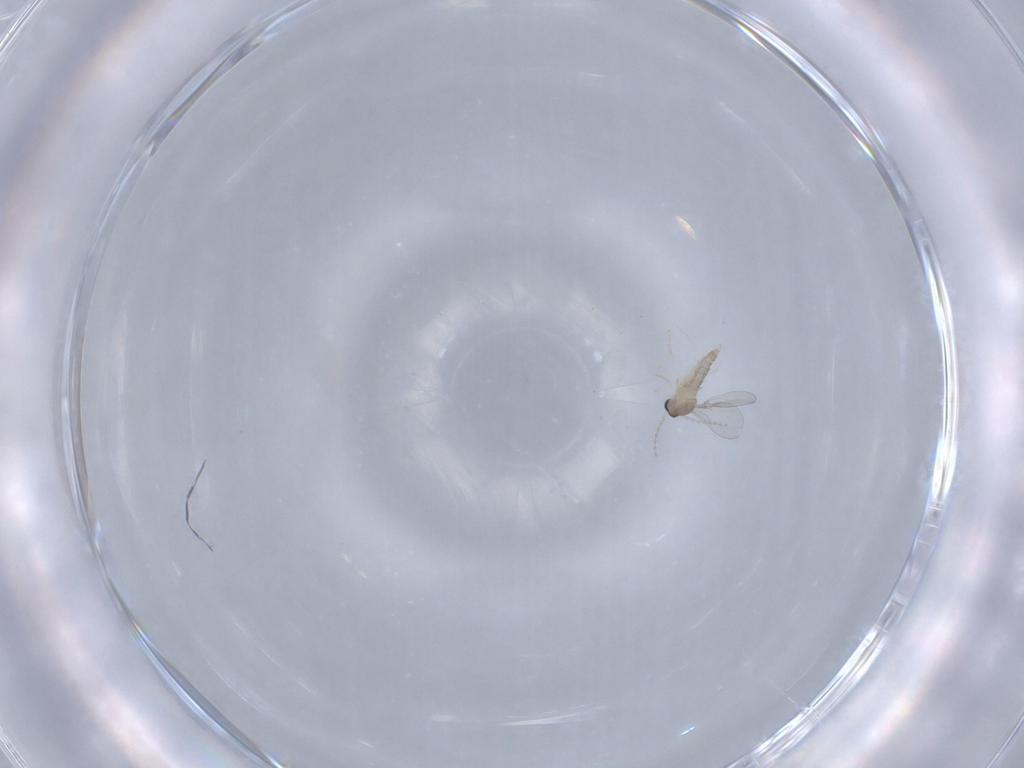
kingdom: Animalia
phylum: Arthropoda
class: Insecta
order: Diptera
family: Cecidomyiidae
